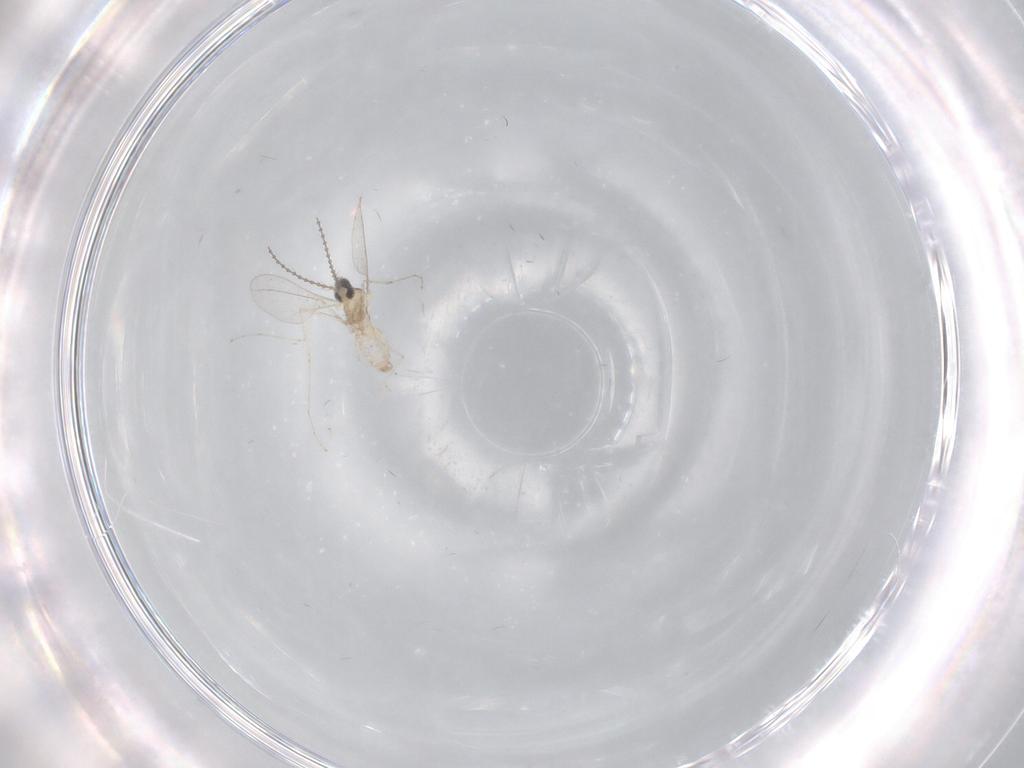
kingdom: Animalia
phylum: Arthropoda
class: Insecta
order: Diptera
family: Cecidomyiidae
